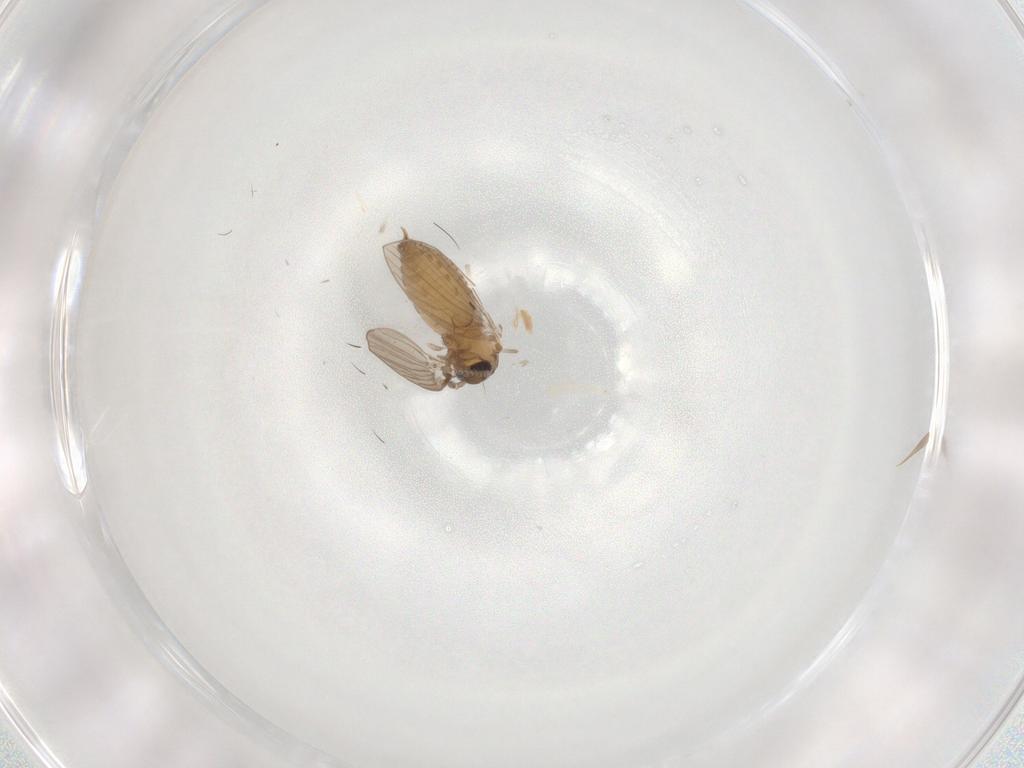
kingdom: Animalia
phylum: Arthropoda
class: Insecta
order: Diptera
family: Psychodidae
